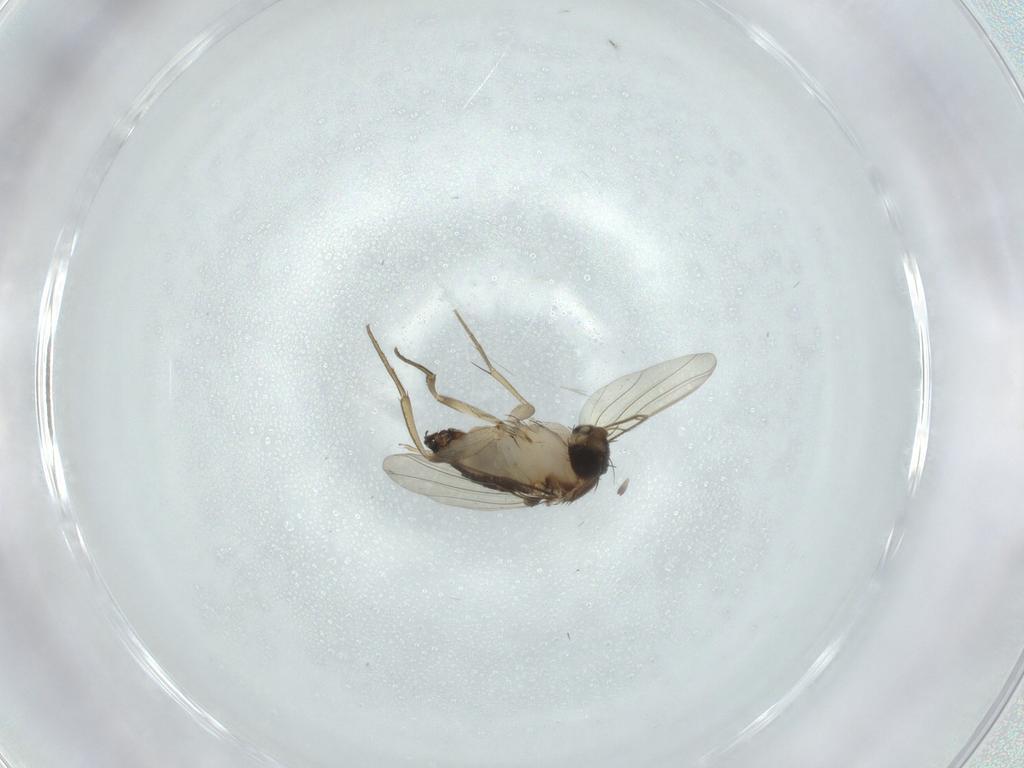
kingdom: Animalia
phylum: Arthropoda
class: Insecta
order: Diptera
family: Phoridae
